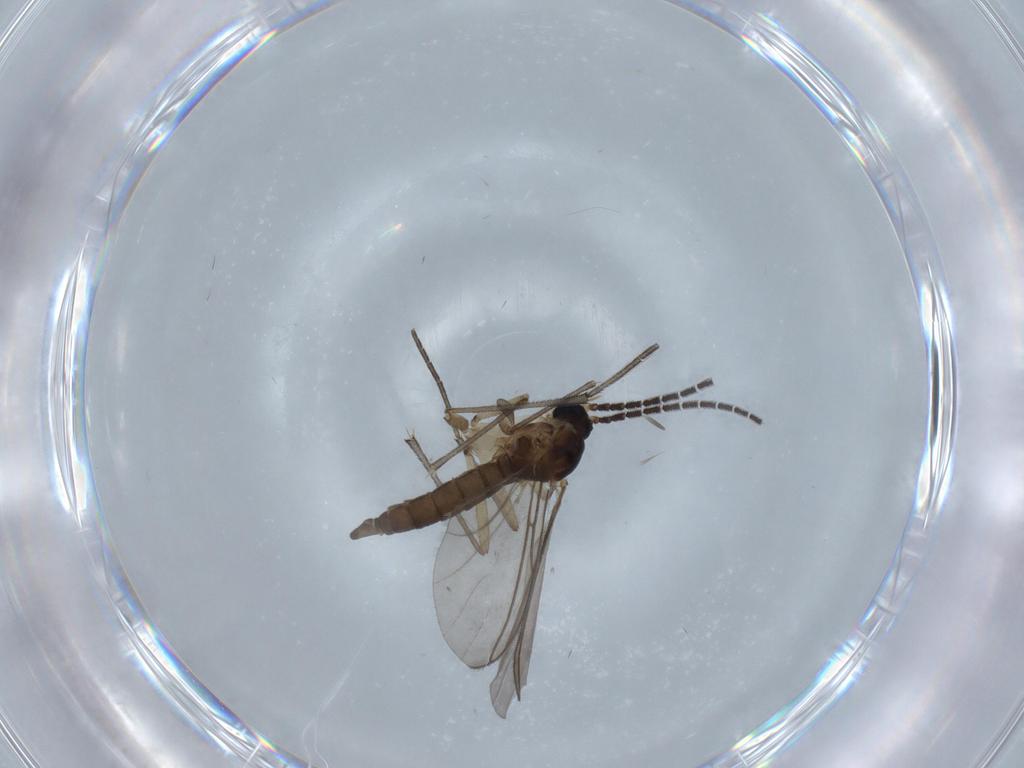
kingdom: Animalia
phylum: Arthropoda
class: Insecta
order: Diptera
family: Sciaridae
